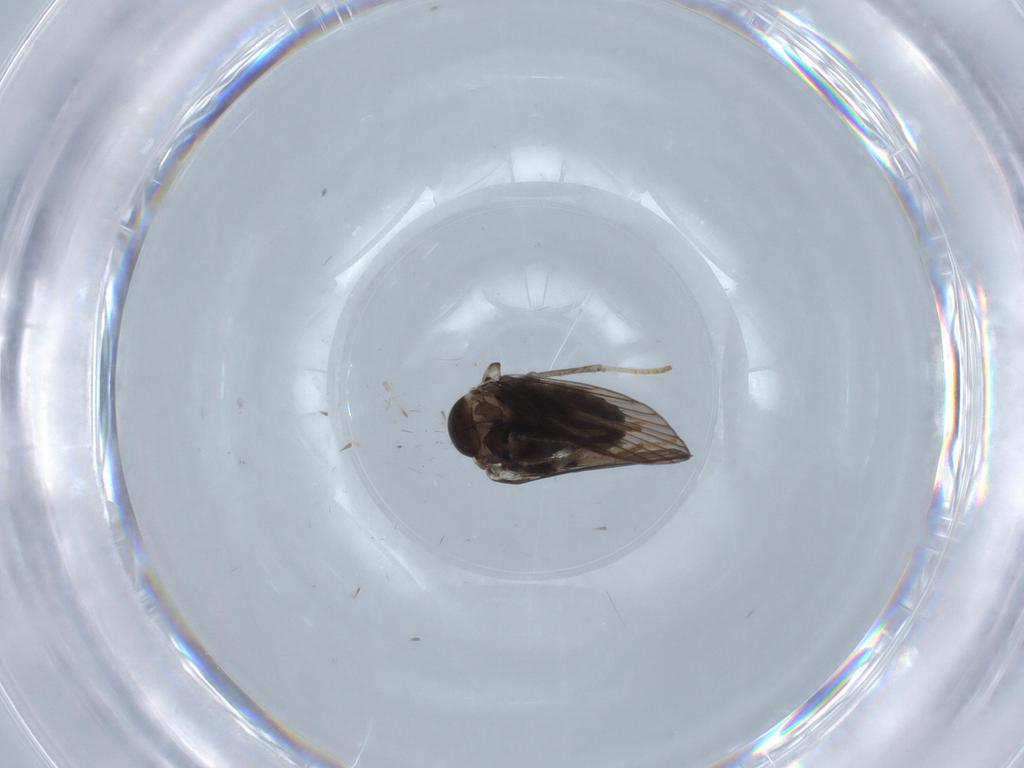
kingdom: Animalia
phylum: Arthropoda
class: Insecta
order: Diptera
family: Psychodidae
